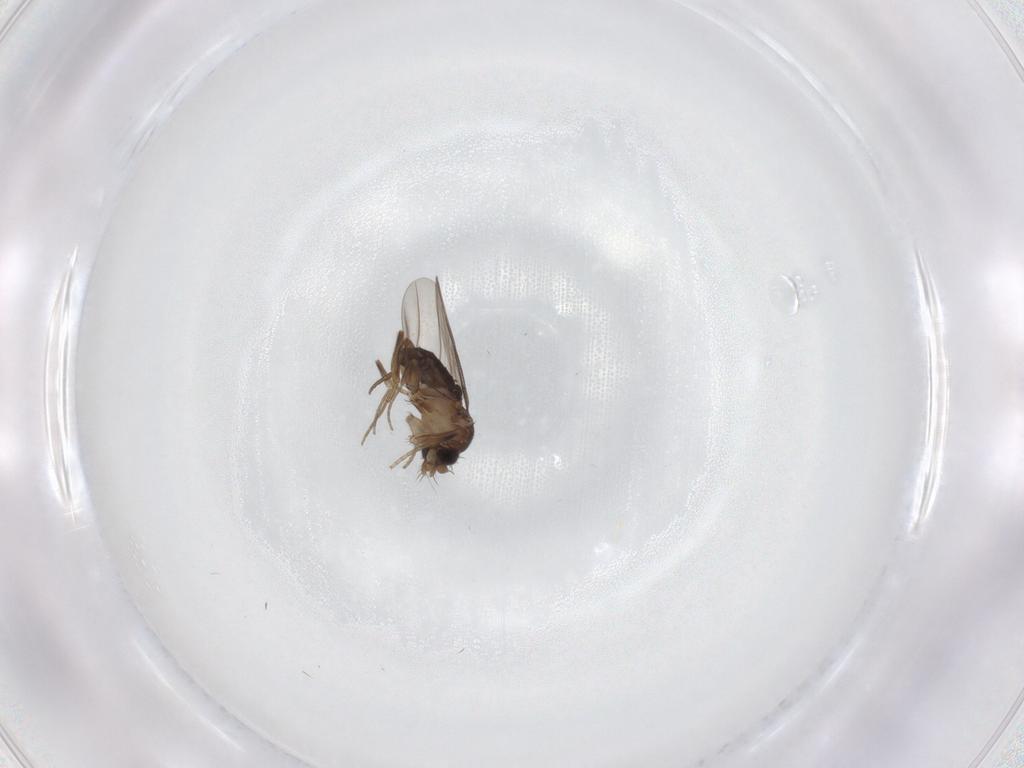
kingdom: Animalia
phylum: Arthropoda
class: Insecta
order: Diptera
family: Phoridae
